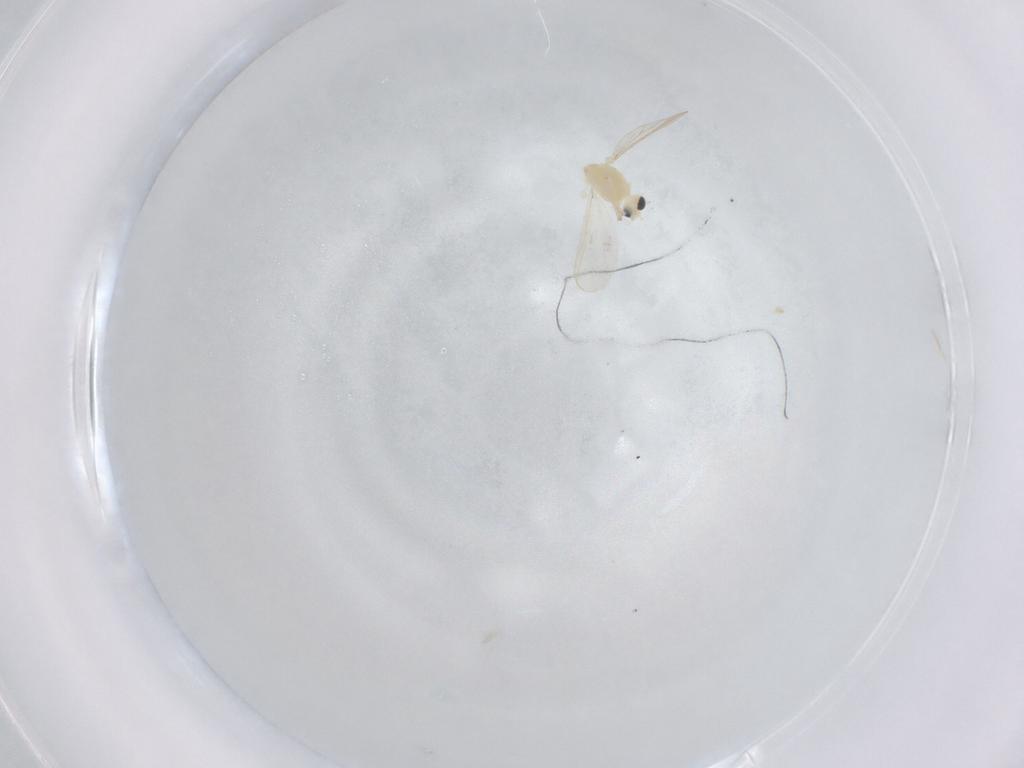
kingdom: Animalia
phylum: Arthropoda
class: Insecta
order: Diptera
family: Chironomidae
